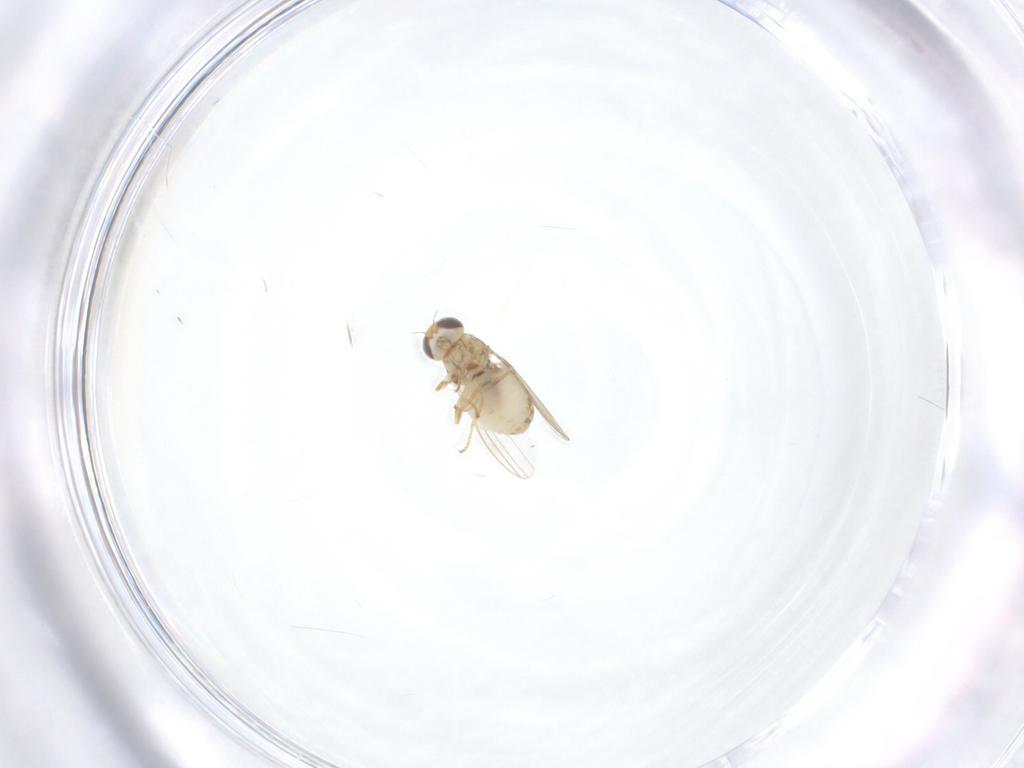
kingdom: Animalia
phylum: Arthropoda
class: Insecta
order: Diptera
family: Chyromyidae
